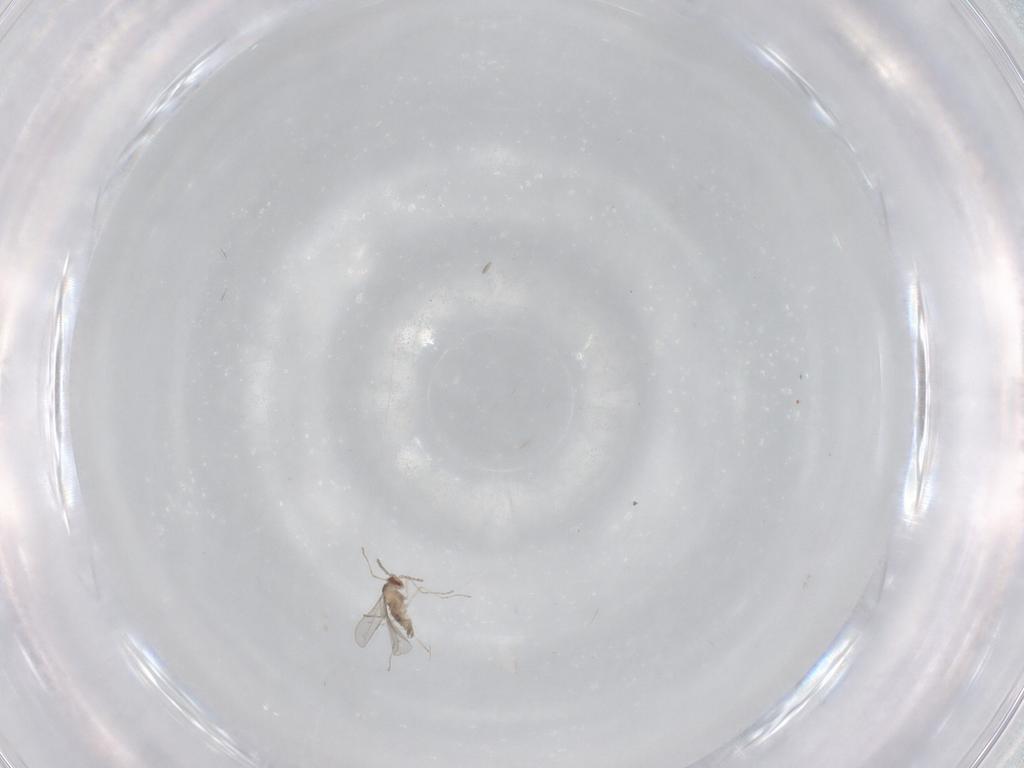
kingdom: Animalia
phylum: Arthropoda
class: Insecta
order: Diptera
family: Cecidomyiidae
